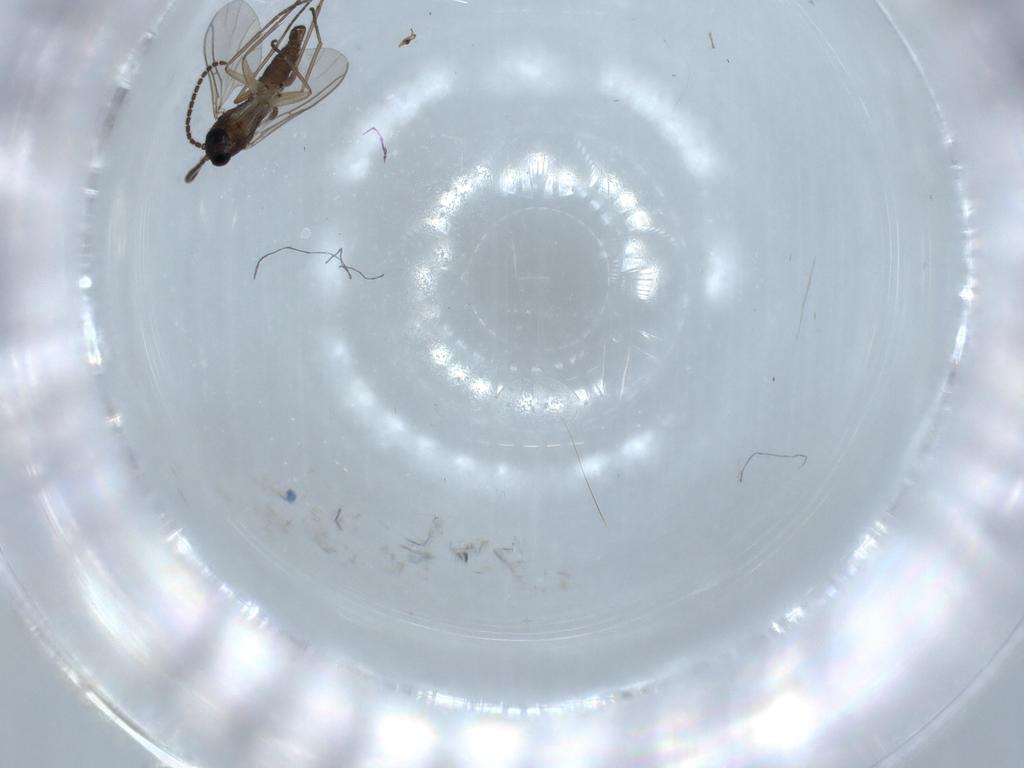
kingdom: Animalia
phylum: Arthropoda
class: Insecta
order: Diptera
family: Sciaridae
